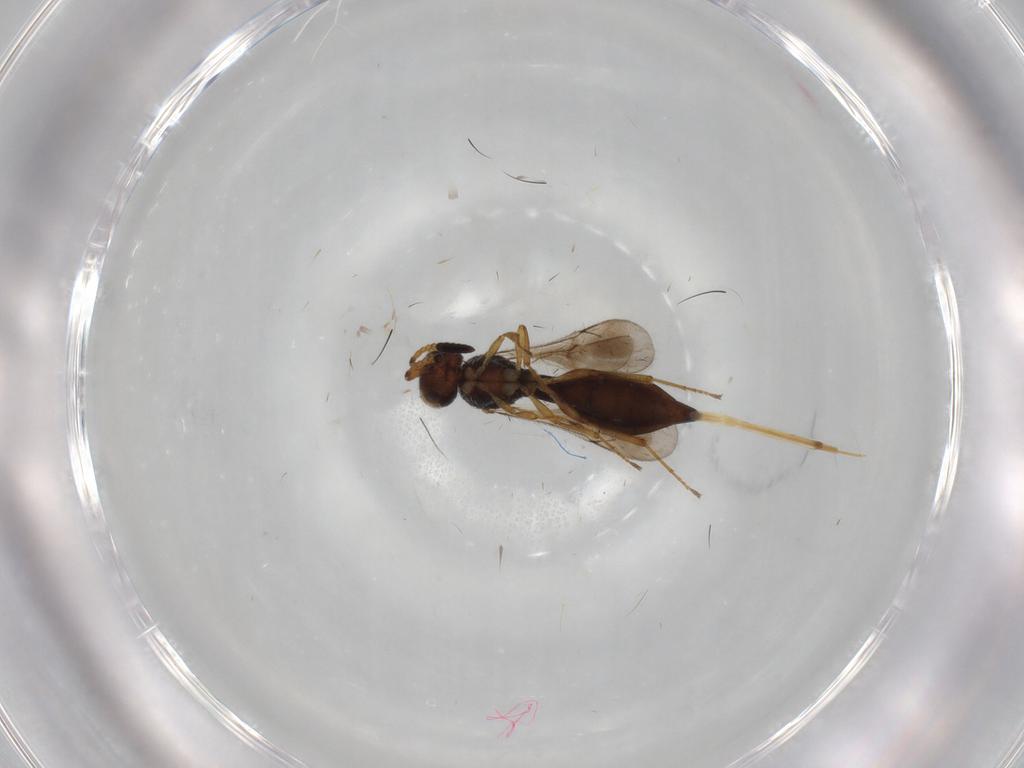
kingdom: Animalia
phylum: Arthropoda
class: Insecta
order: Hymenoptera
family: Scelionidae
